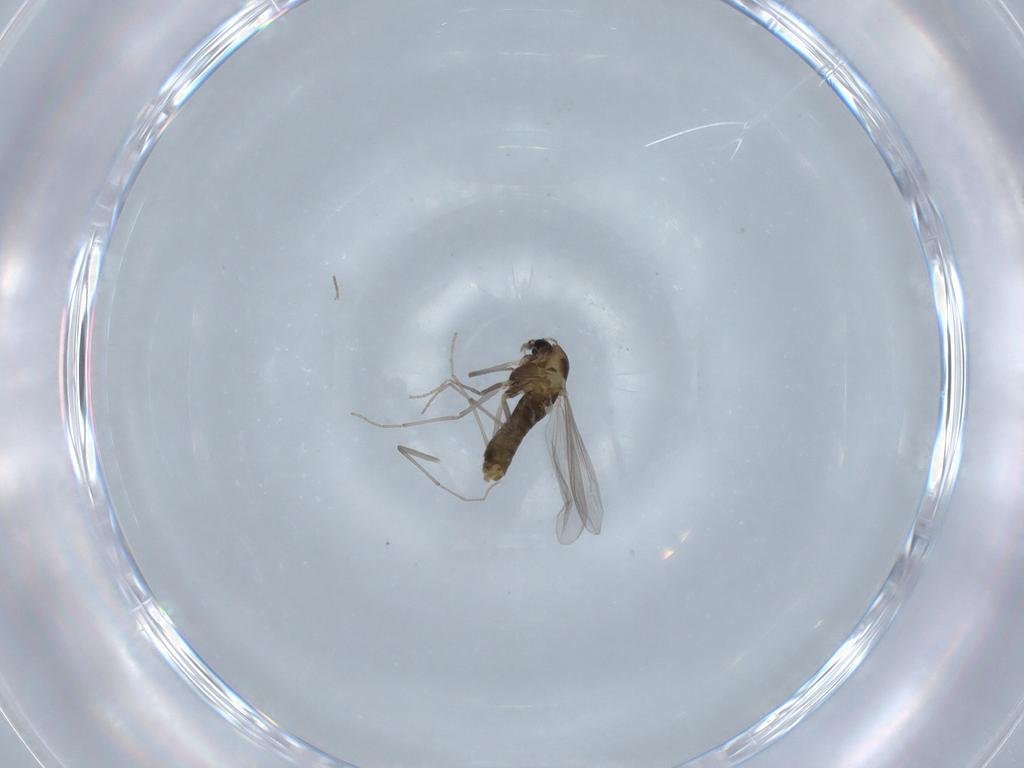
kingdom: Animalia
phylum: Arthropoda
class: Insecta
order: Diptera
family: Chironomidae
